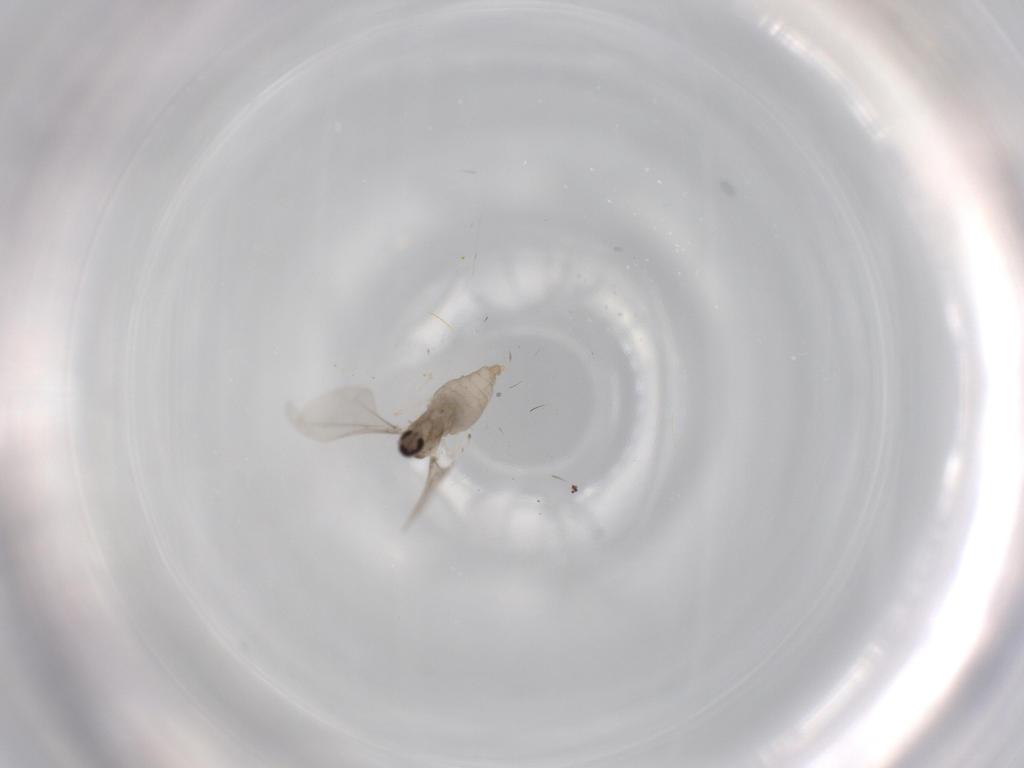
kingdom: Animalia
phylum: Arthropoda
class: Insecta
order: Diptera
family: Cecidomyiidae
